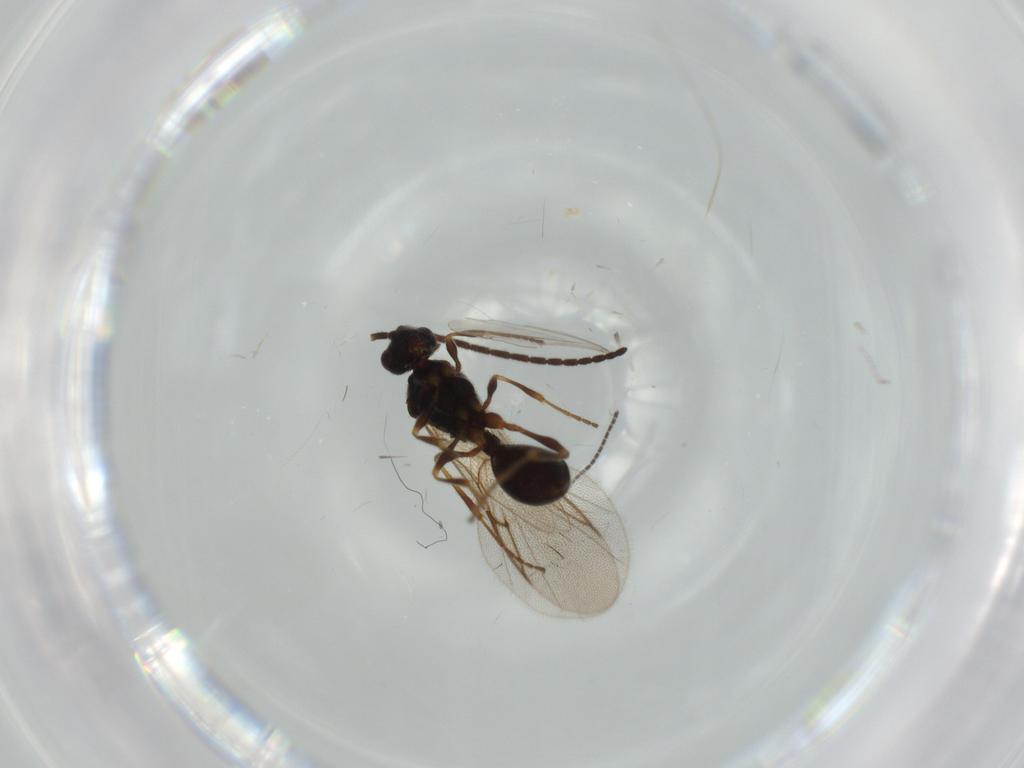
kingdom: Animalia
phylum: Arthropoda
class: Insecta
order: Hymenoptera
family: Diapriidae
